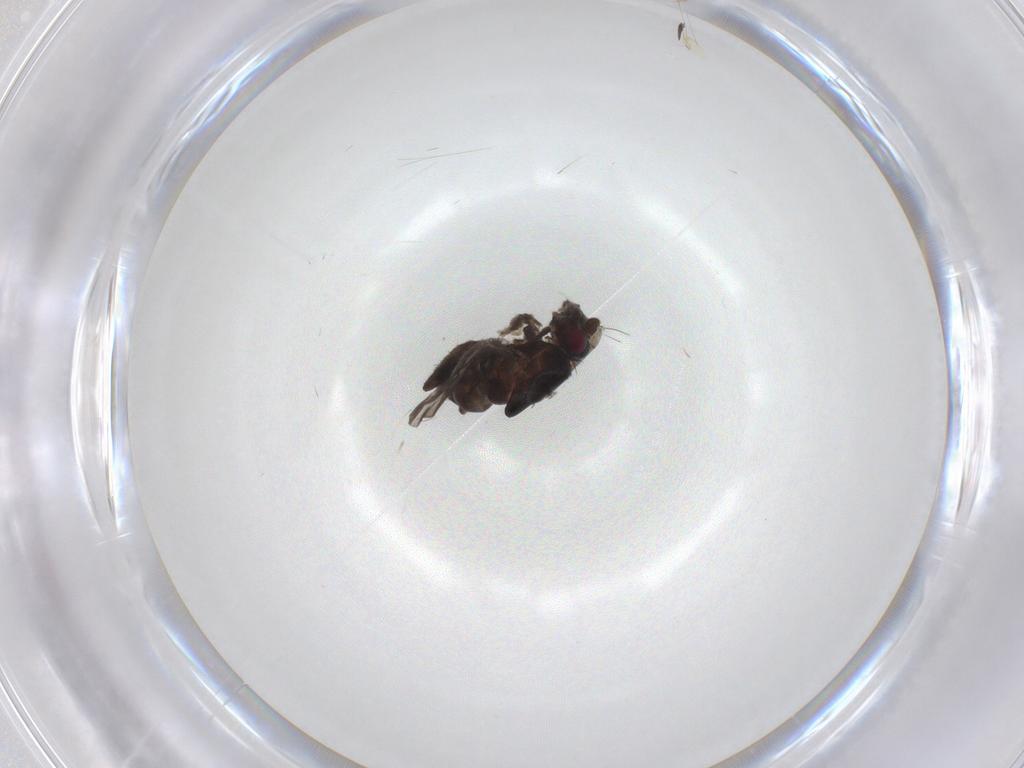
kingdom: Animalia
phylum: Arthropoda
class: Insecta
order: Diptera
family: Sphaeroceridae
